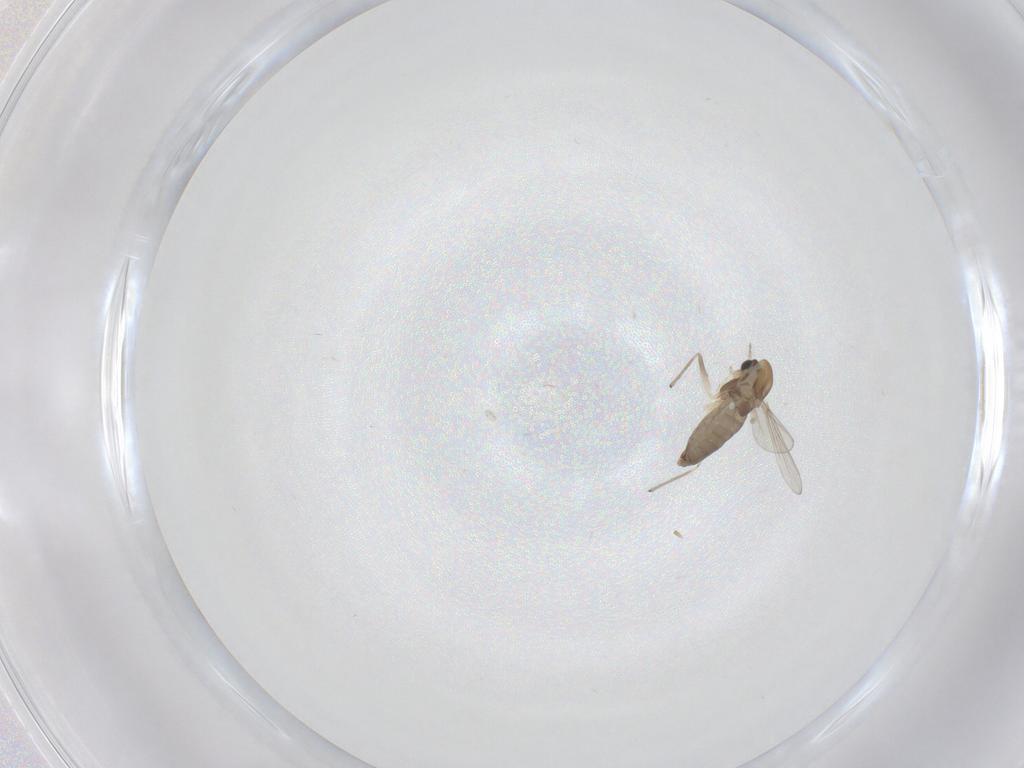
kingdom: Animalia
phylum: Arthropoda
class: Insecta
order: Diptera
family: Chironomidae
